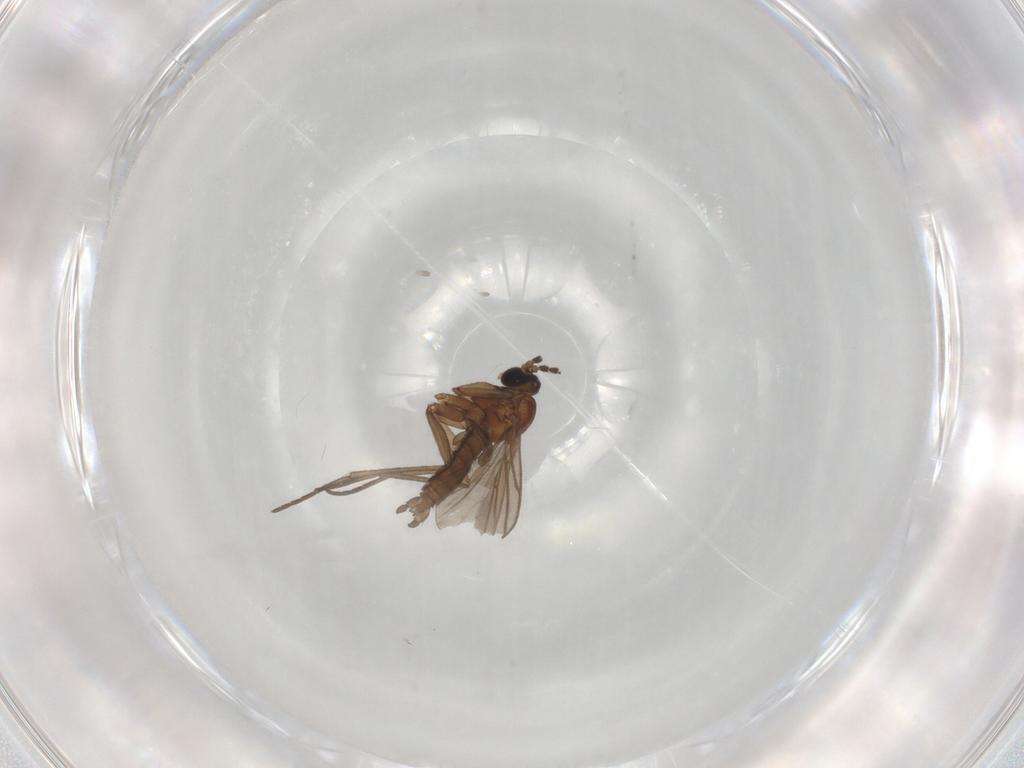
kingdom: Animalia
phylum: Arthropoda
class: Insecta
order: Diptera
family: Sciaridae
